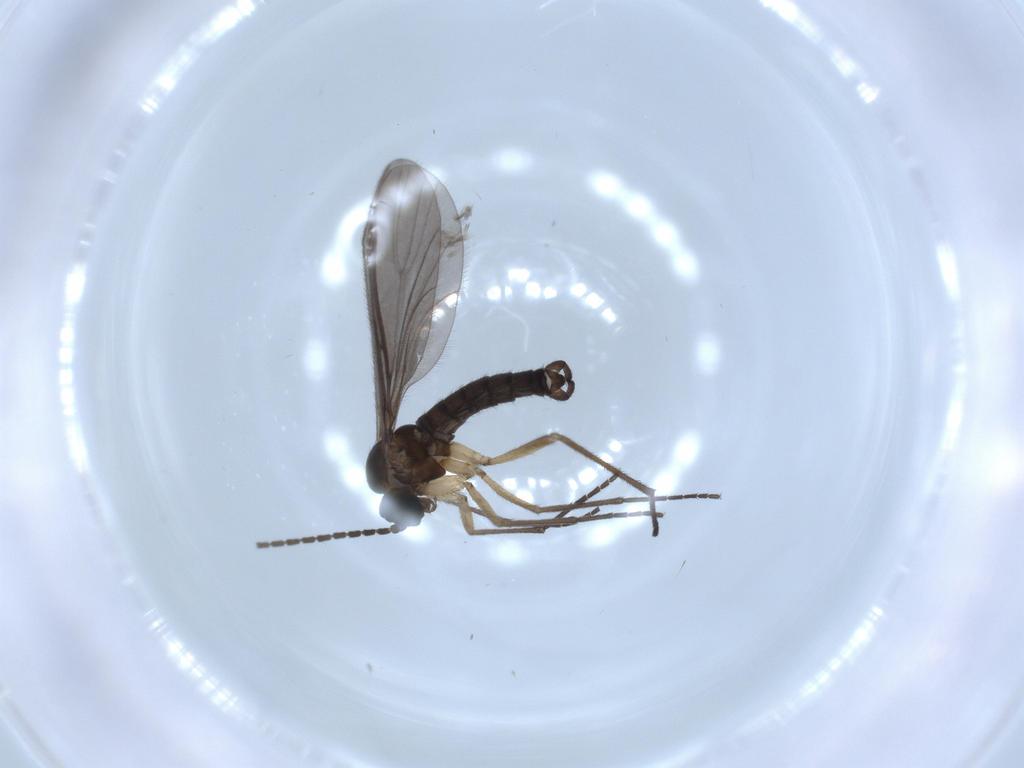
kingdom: Animalia
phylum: Arthropoda
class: Insecta
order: Diptera
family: Sciaridae
